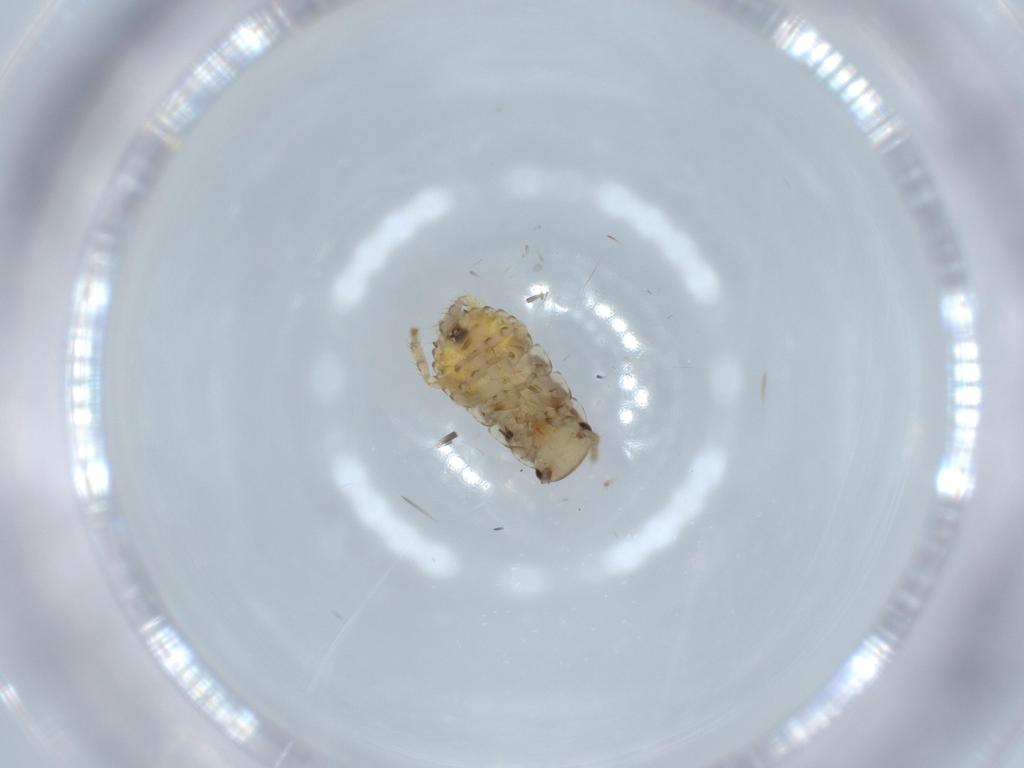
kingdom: Animalia
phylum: Arthropoda
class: Insecta
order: Blattodea
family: Ectobiidae
